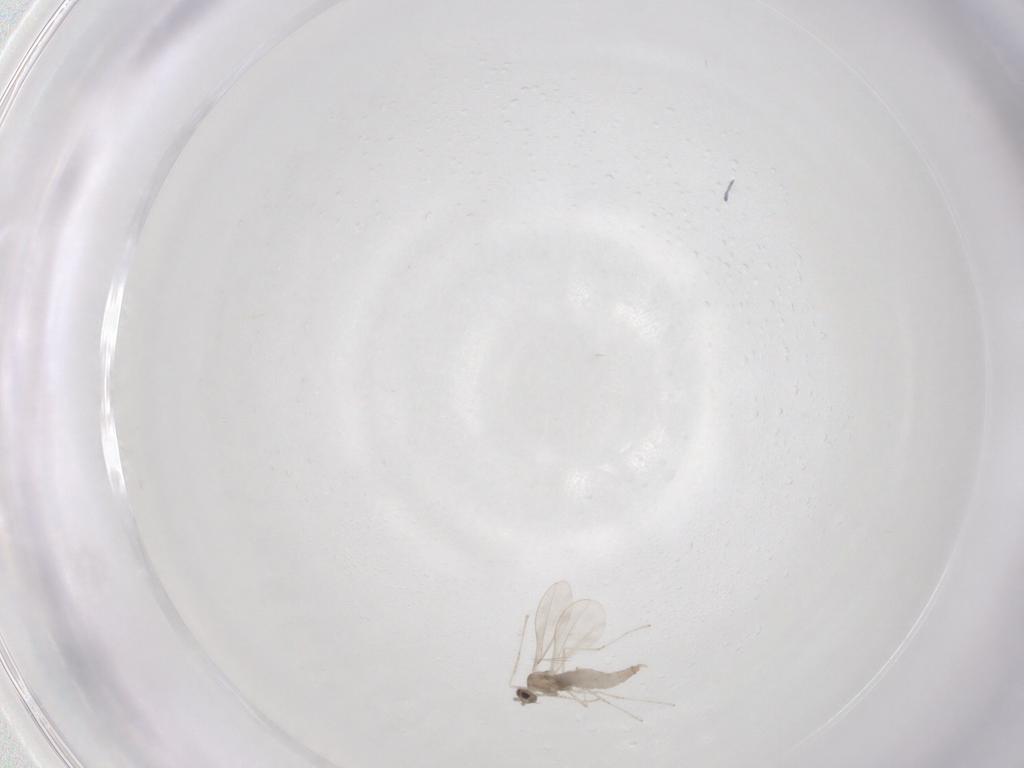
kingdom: Animalia
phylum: Arthropoda
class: Insecta
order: Diptera
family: Cecidomyiidae
